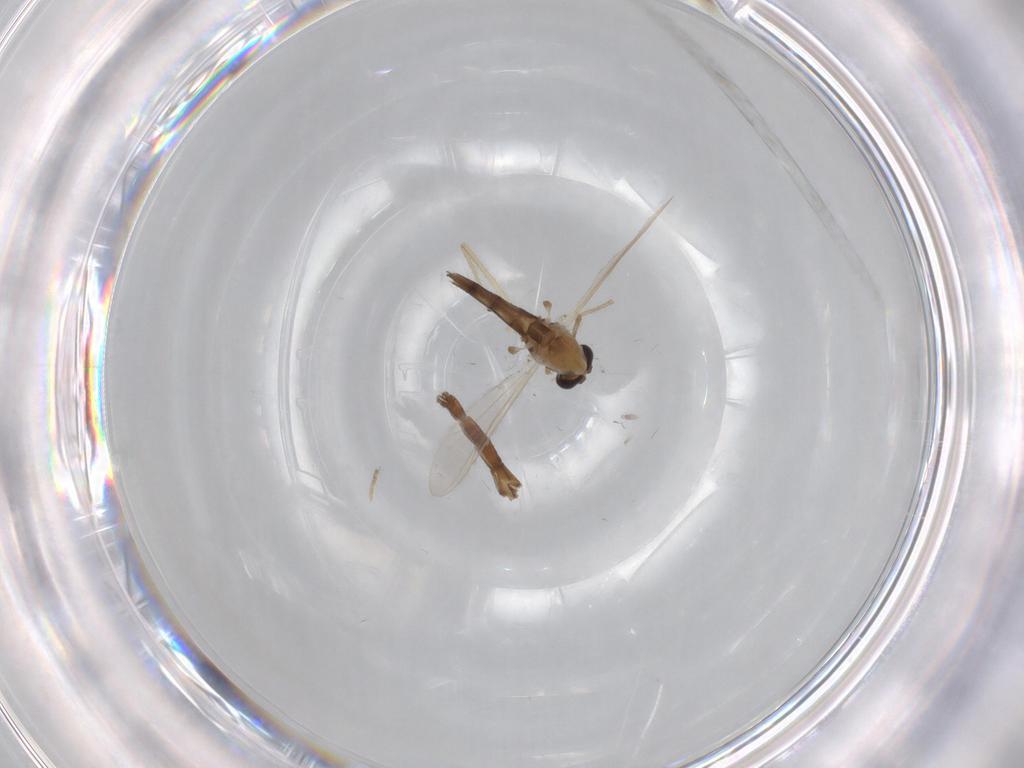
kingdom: Animalia
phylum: Arthropoda
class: Insecta
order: Diptera
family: Chironomidae
